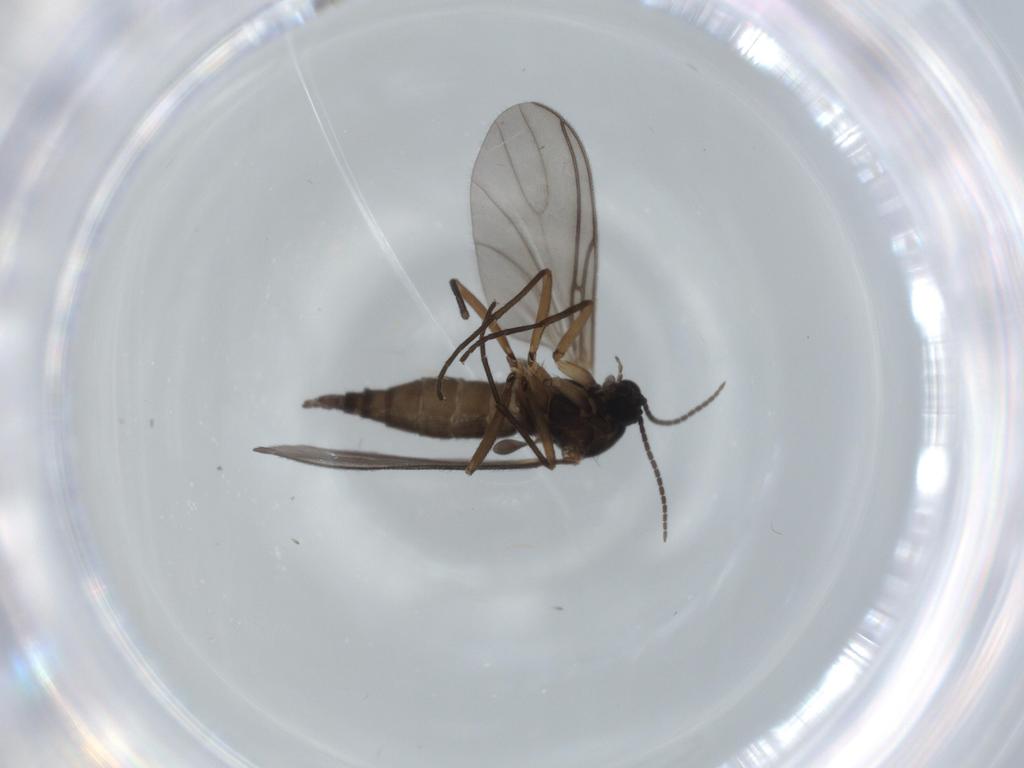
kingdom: Animalia
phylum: Arthropoda
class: Insecta
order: Diptera
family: Sciaridae
